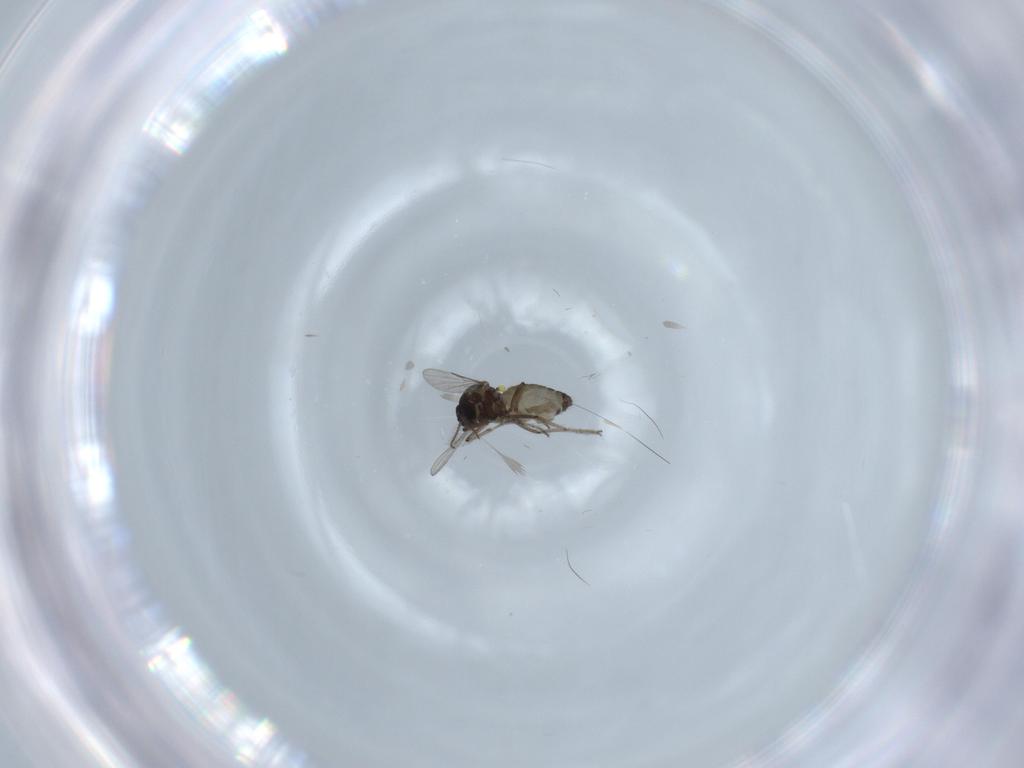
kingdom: Animalia
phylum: Arthropoda
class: Insecta
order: Diptera
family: Ceratopogonidae
